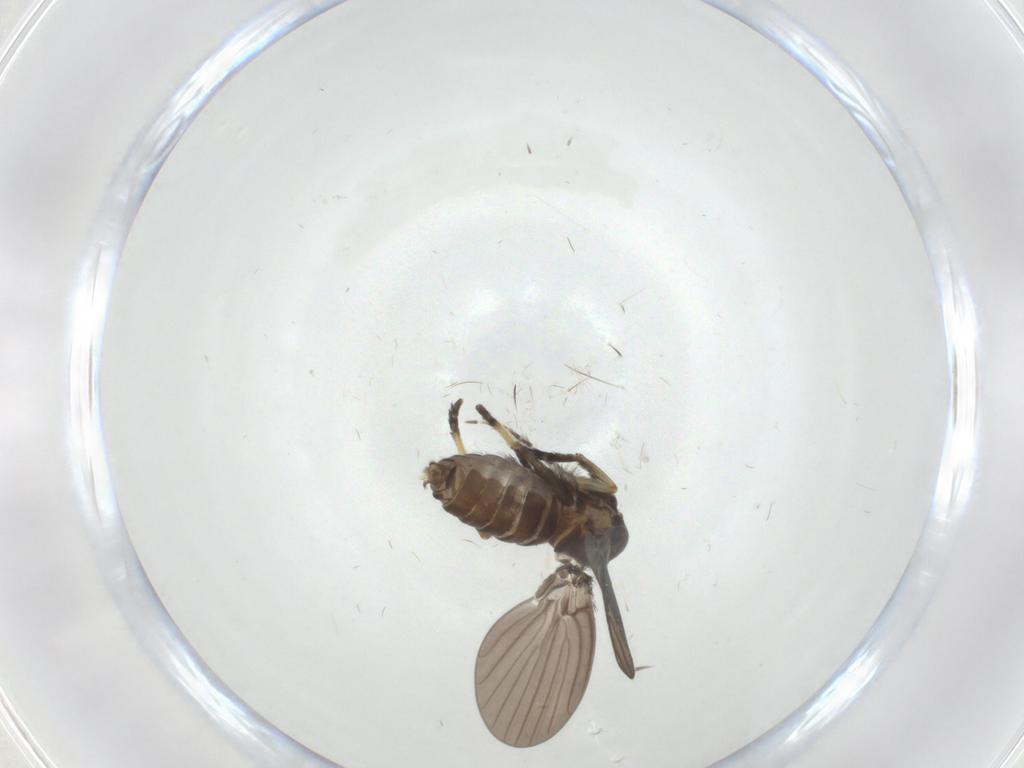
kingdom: Animalia
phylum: Arthropoda
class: Insecta
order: Diptera
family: Psychodidae
